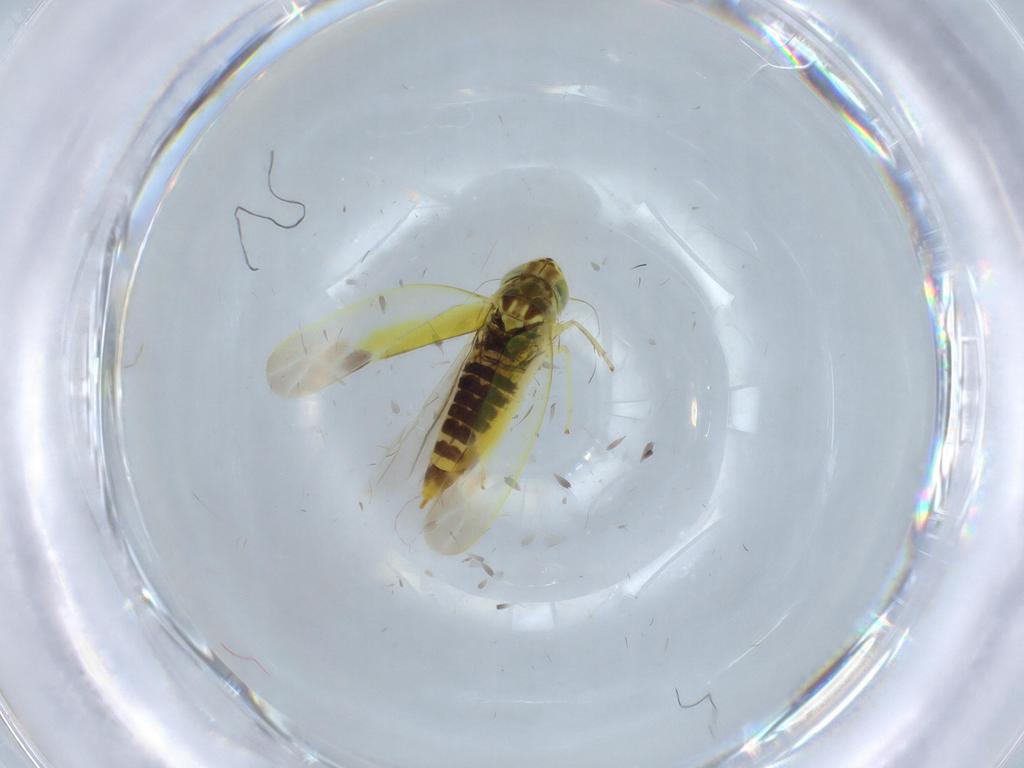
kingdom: Animalia
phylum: Arthropoda
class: Insecta
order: Hemiptera
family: Cicadellidae
